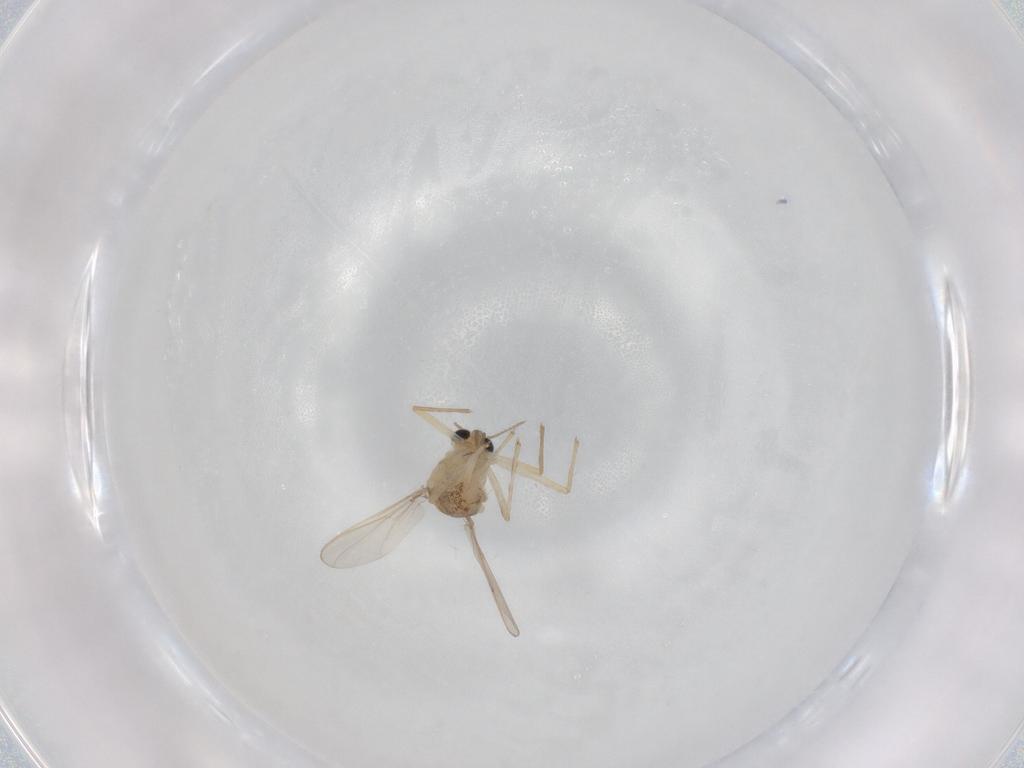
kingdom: Animalia
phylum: Arthropoda
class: Insecta
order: Diptera
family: Chironomidae
